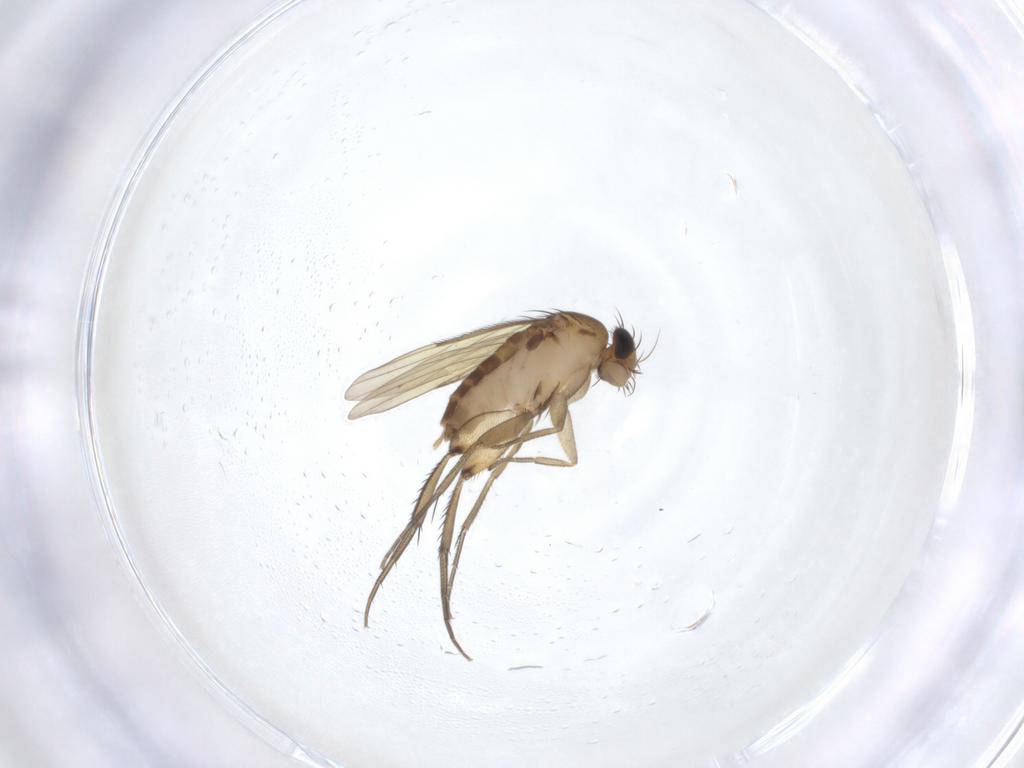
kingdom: Animalia
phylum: Arthropoda
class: Insecta
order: Diptera
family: Phoridae
